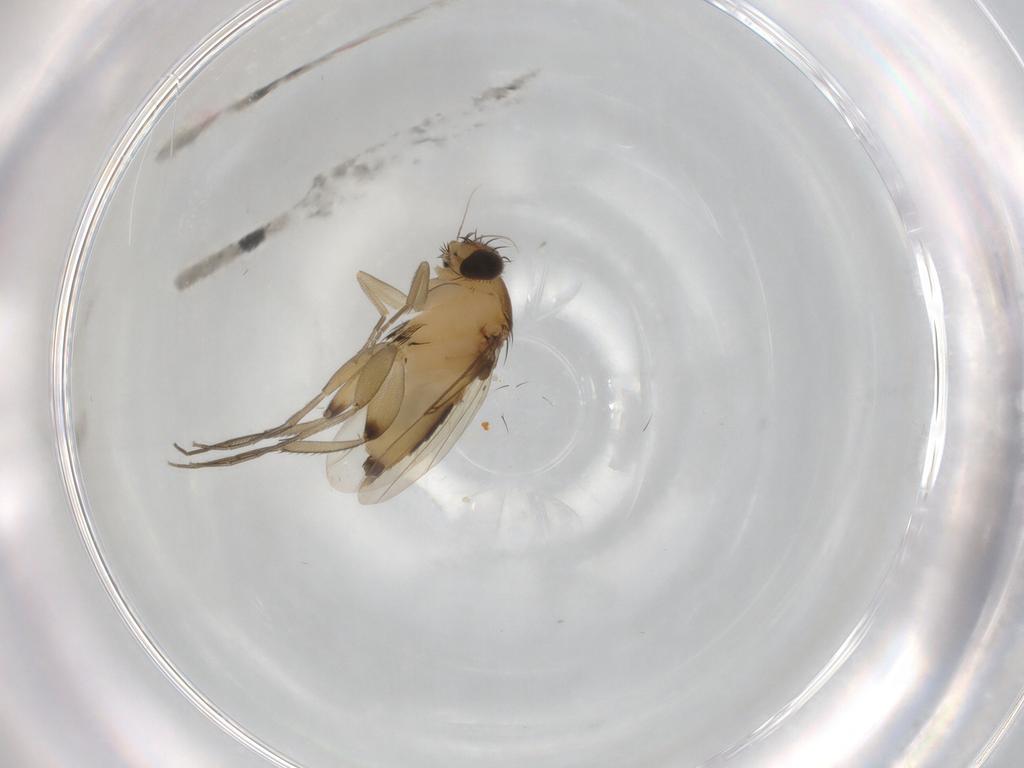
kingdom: Animalia
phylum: Arthropoda
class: Insecta
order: Diptera
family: Phoridae
